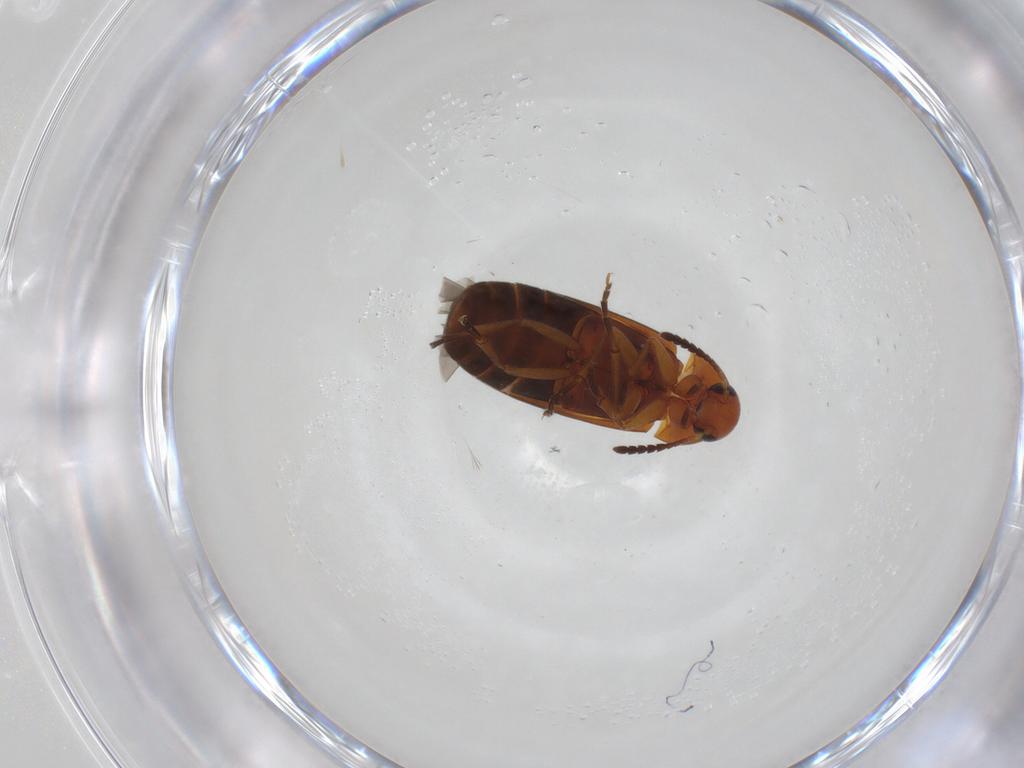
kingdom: Animalia
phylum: Arthropoda
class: Insecta
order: Coleoptera
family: Scraptiidae
